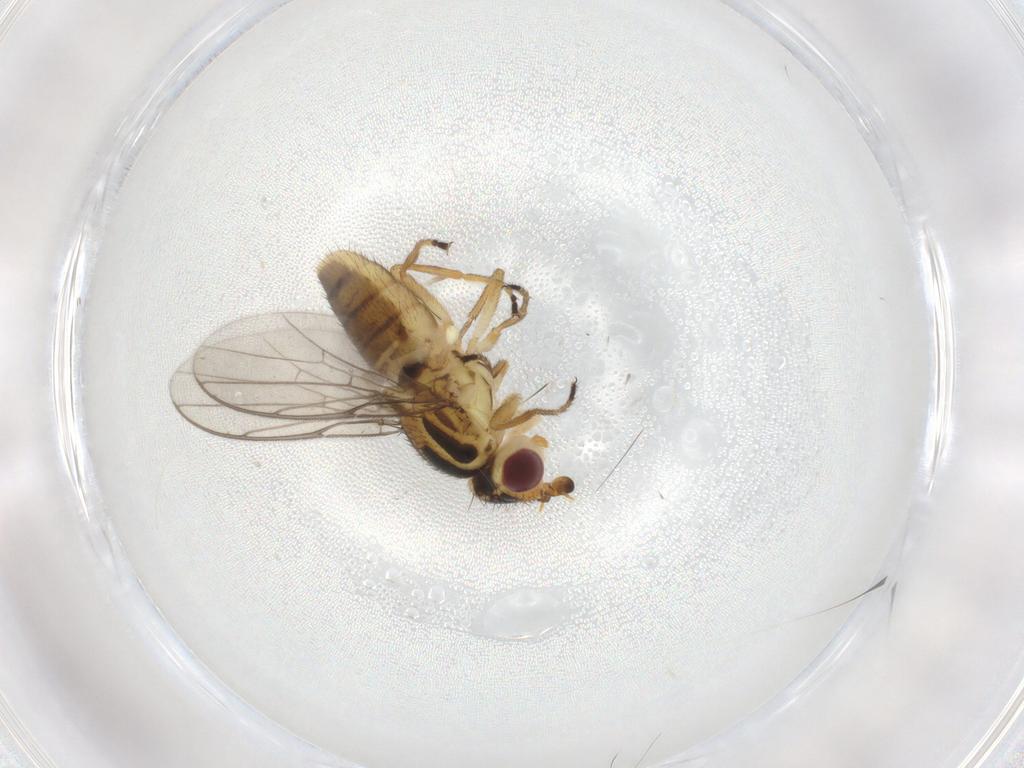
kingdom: Animalia
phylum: Arthropoda
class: Insecta
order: Diptera
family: Chloropidae
